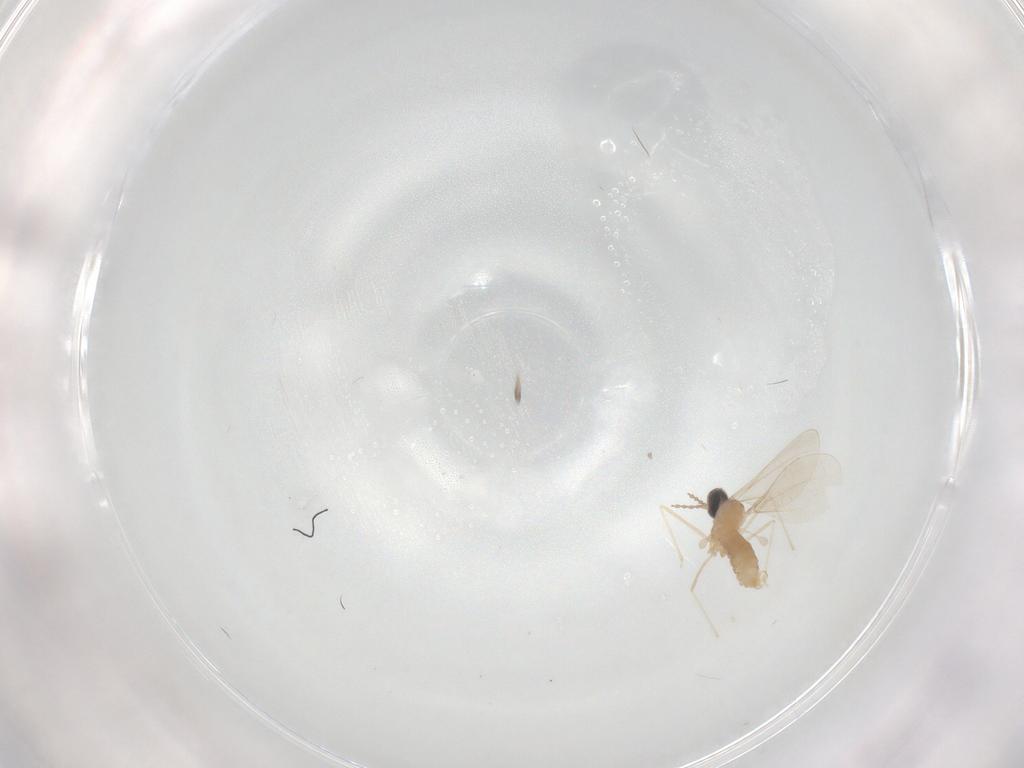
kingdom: Animalia
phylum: Arthropoda
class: Insecta
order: Diptera
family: Cecidomyiidae
